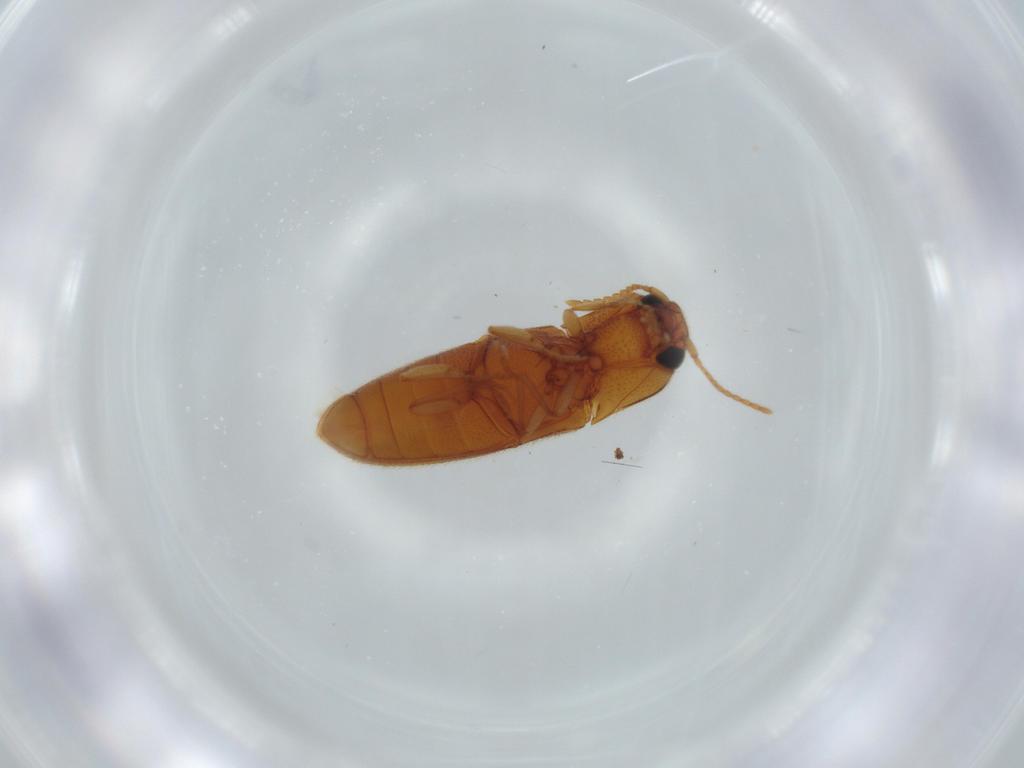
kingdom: Animalia
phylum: Arthropoda
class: Insecta
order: Coleoptera
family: Elateridae
